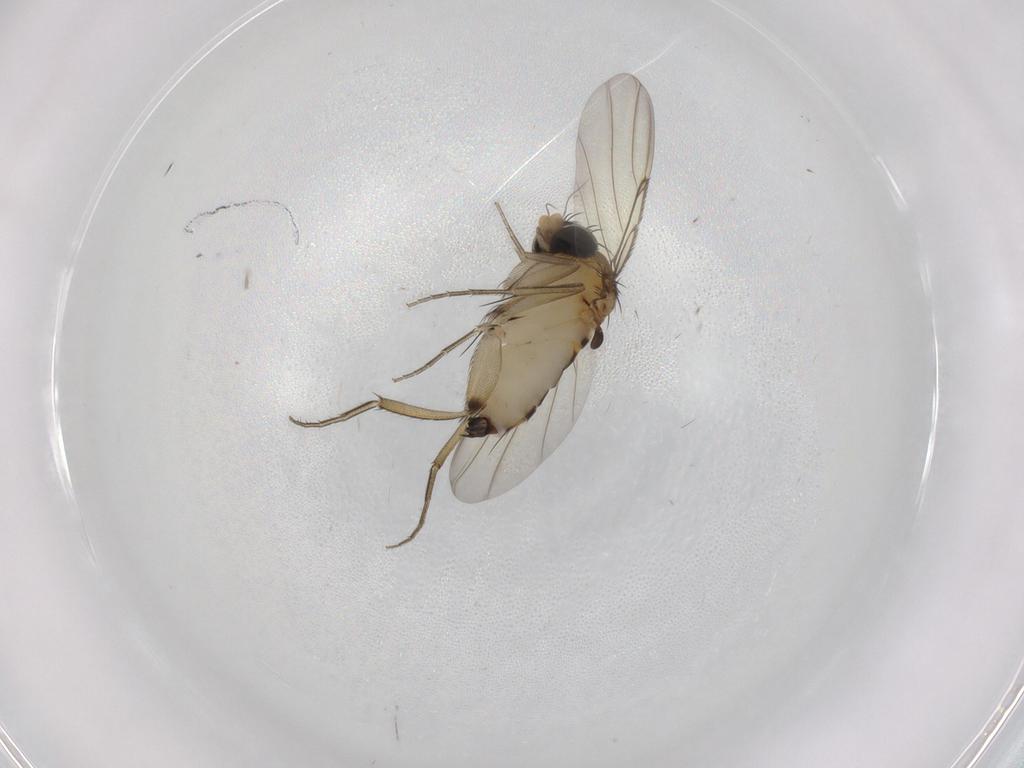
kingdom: Animalia
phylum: Arthropoda
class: Insecta
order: Diptera
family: Phoridae
